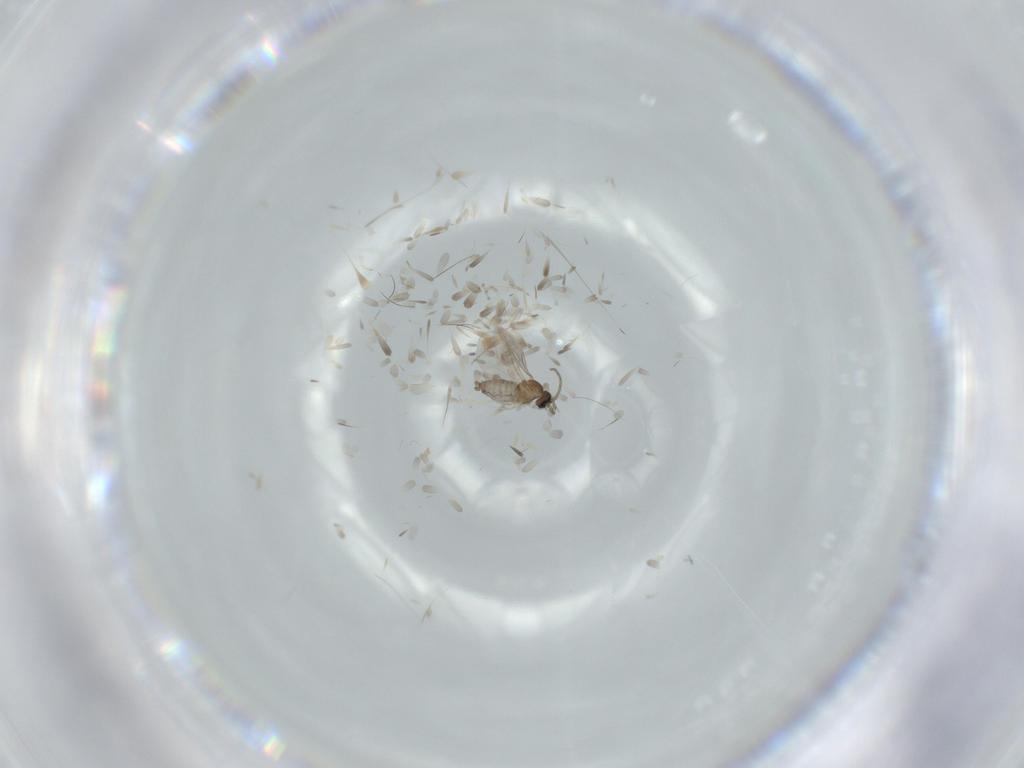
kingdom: Animalia
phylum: Arthropoda
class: Insecta
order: Diptera
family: Cecidomyiidae
